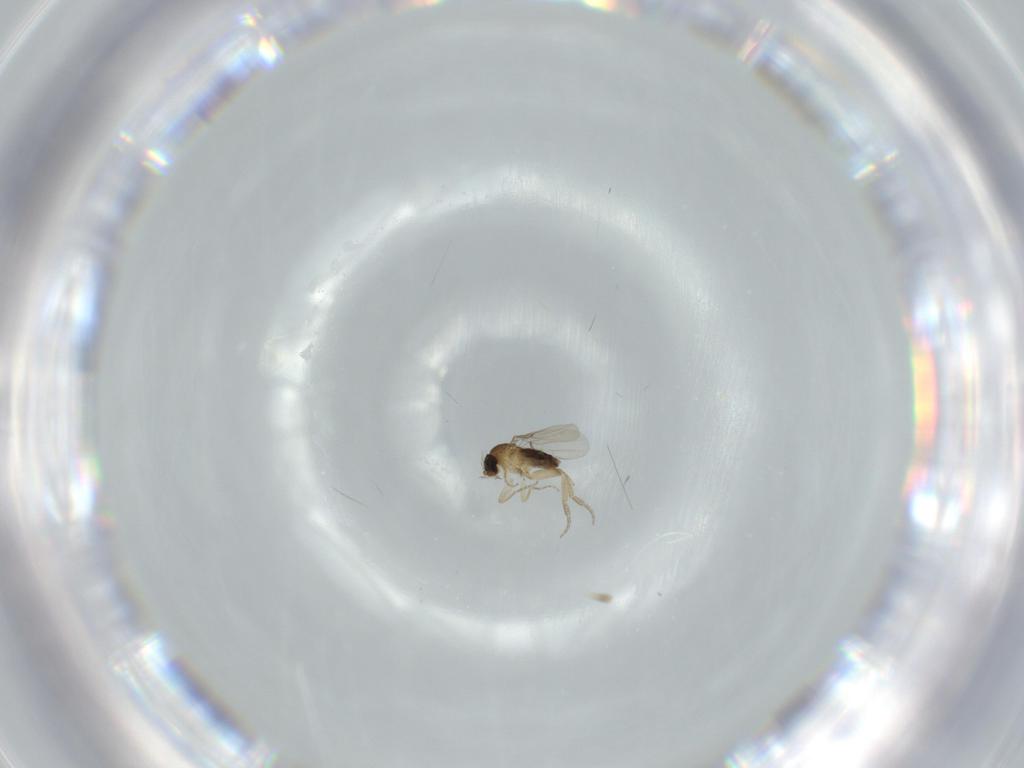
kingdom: Animalia
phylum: Arthropoda
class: Insecta
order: Diptera
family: Phoridae
